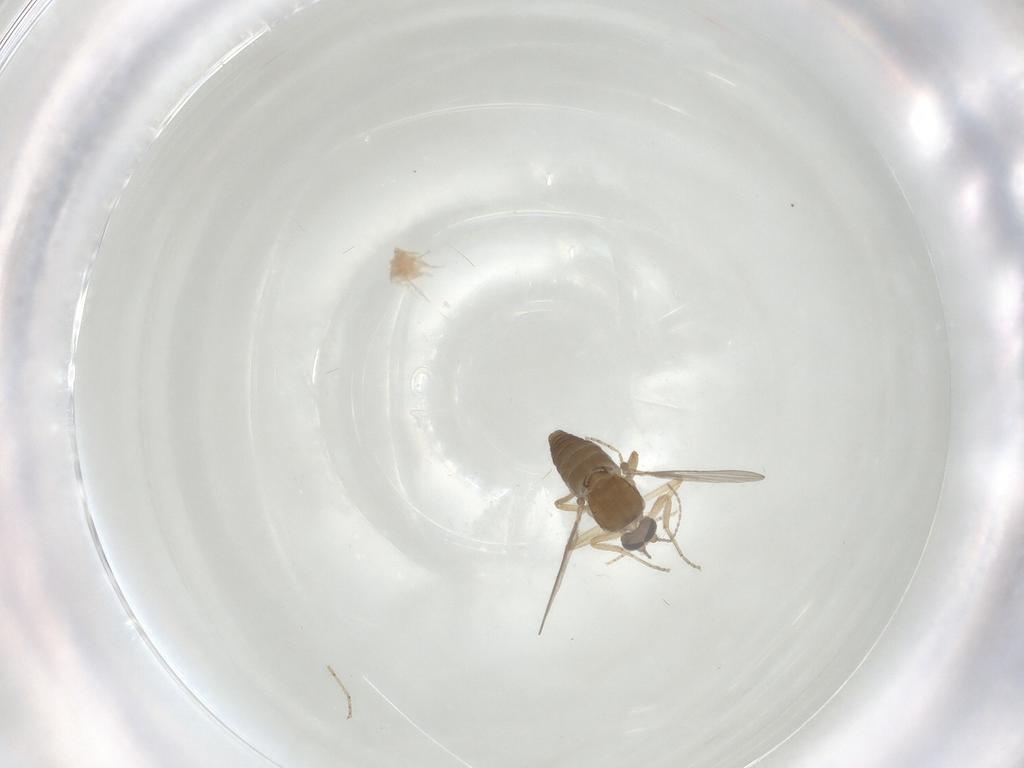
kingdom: Animalia
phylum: Arthropoda
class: Insecta
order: Diptera
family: Ceratopogonidae
